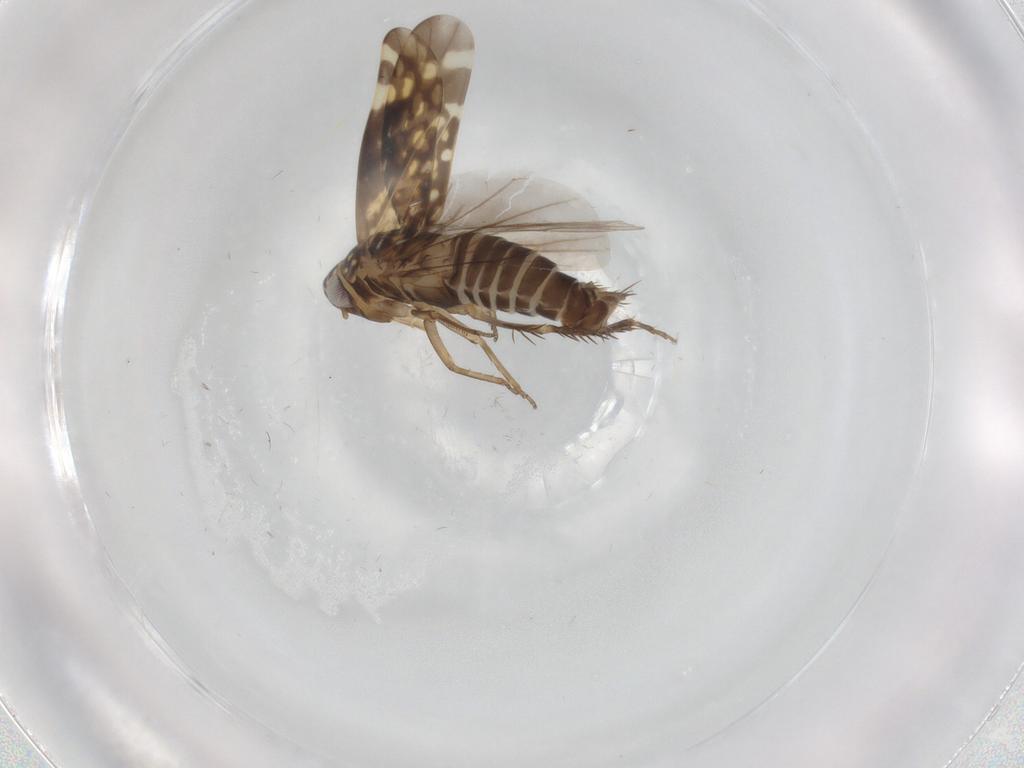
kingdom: Animalia
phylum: Arthropoda
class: Insecta
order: Hemiptera
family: Cicadellidae
